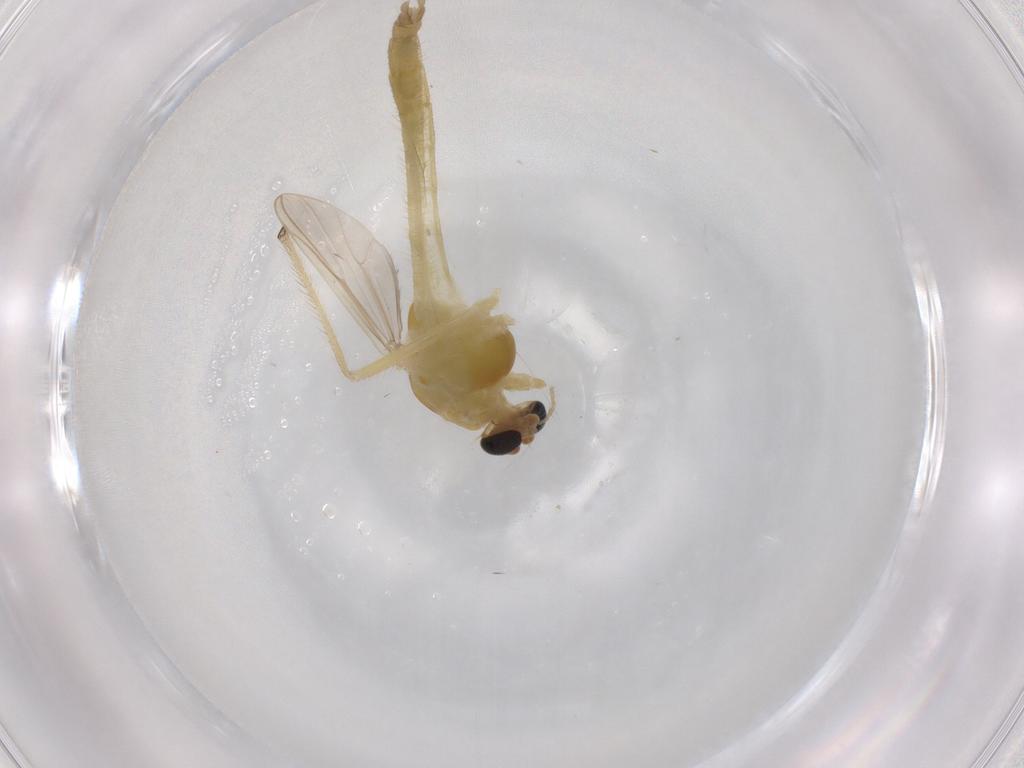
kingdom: Animalia
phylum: Arthropoda
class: Insecta
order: Diptera
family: Chironomidae
